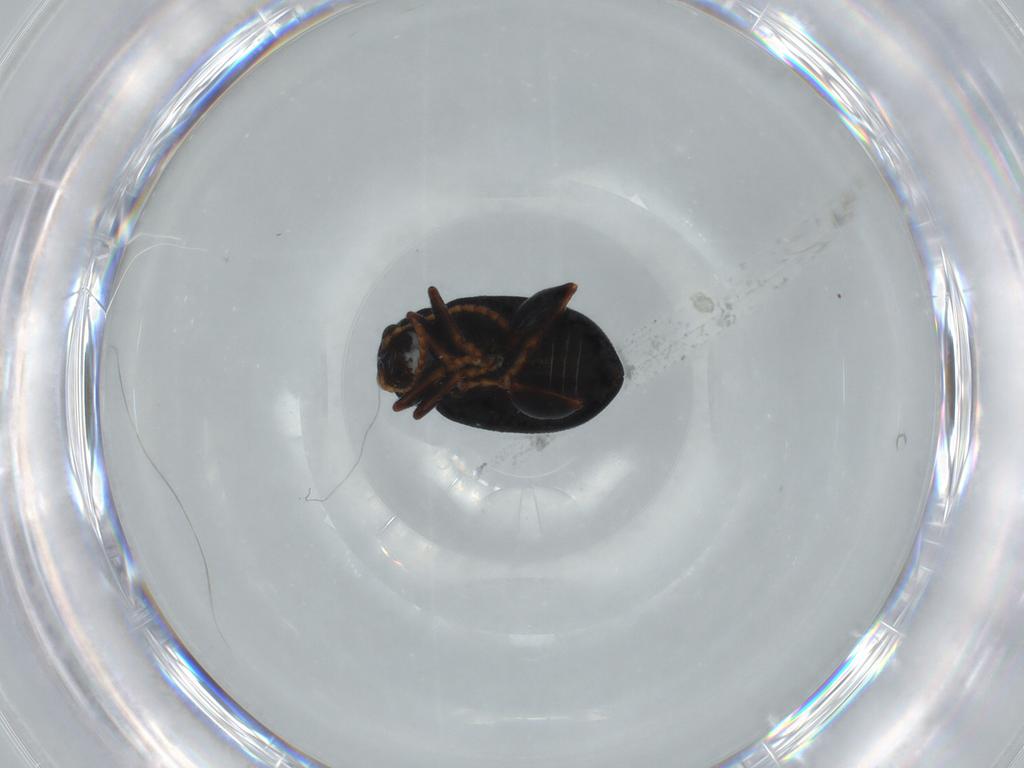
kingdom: Animalia
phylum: Arthropoda
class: Insecta
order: Coleoptera
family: Chrysomelidae
